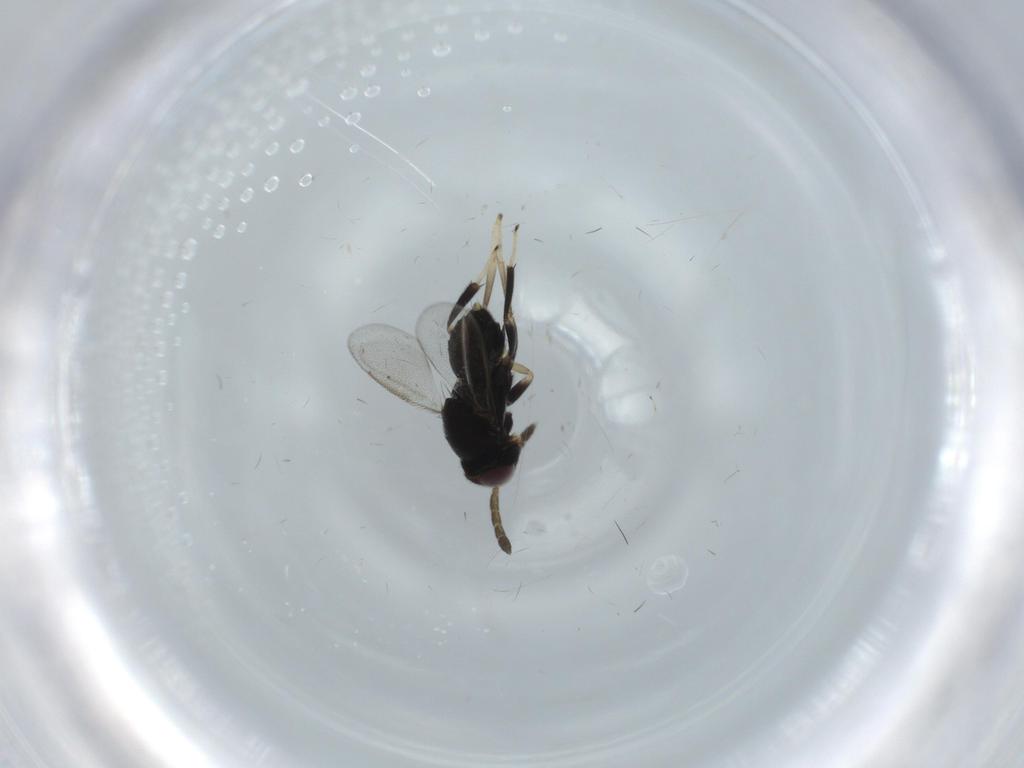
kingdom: Animalia
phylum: Arthropoda
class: Insecta
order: Hymenoptera
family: Aphelinidae
